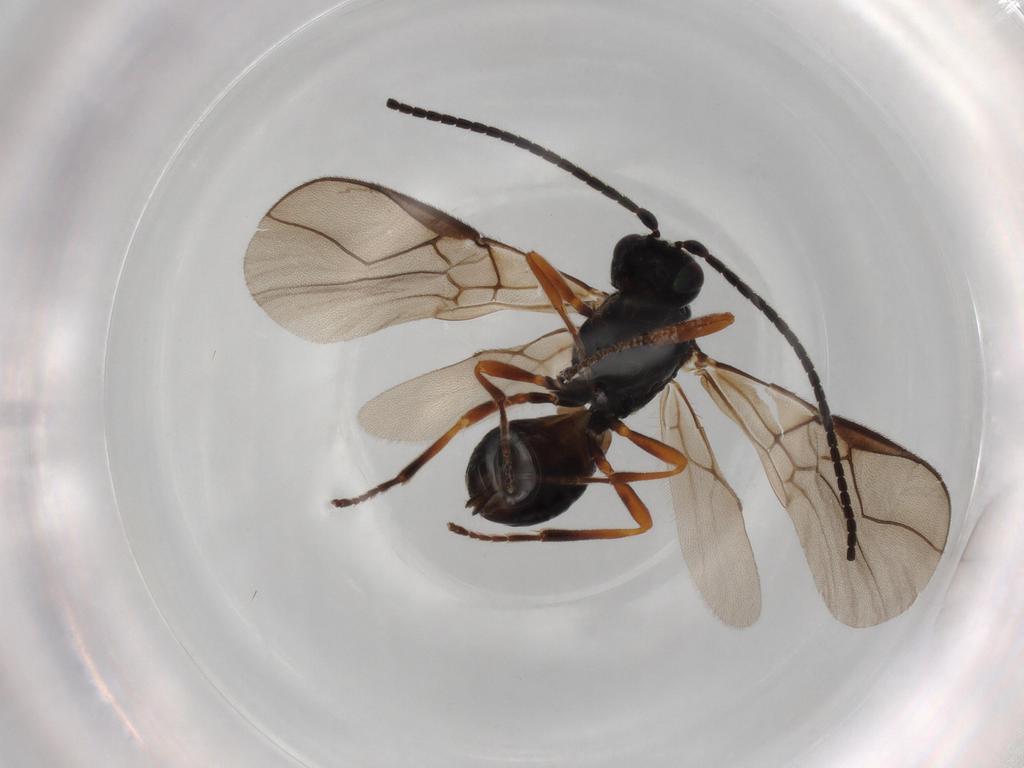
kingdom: Animalia
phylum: Arthropoda
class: Insecta
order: Hymenoptera
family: Braconidae
